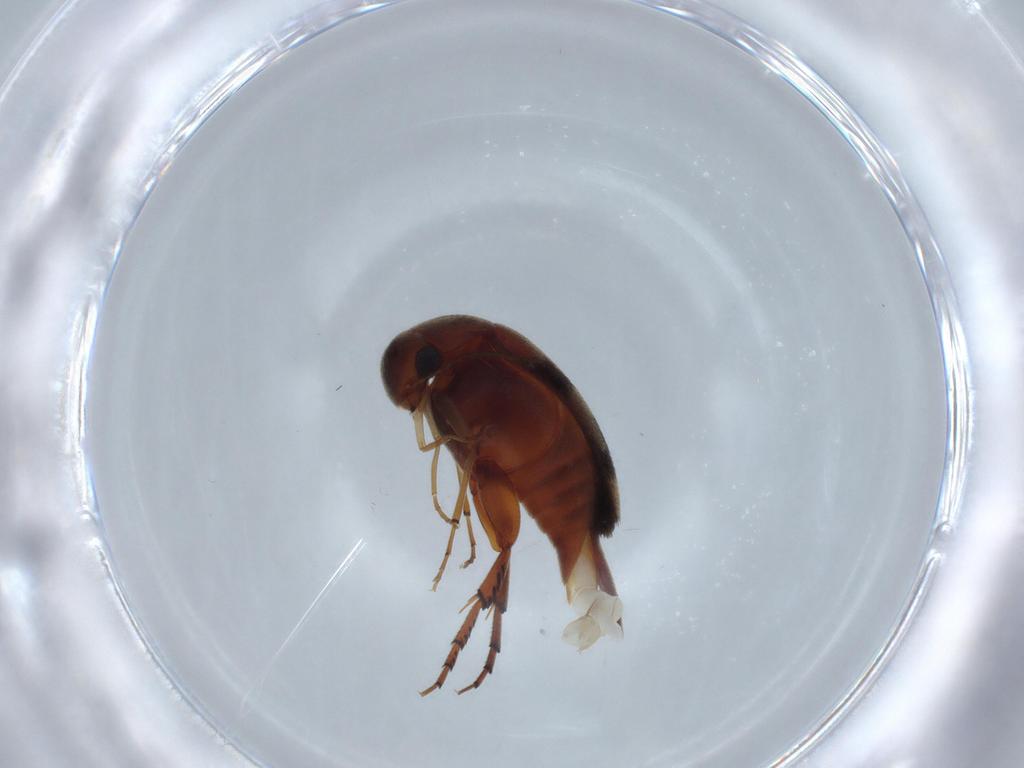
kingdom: Animalia
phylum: Arthropoda
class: Insecta
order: Coleoptera
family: Mordellidae
